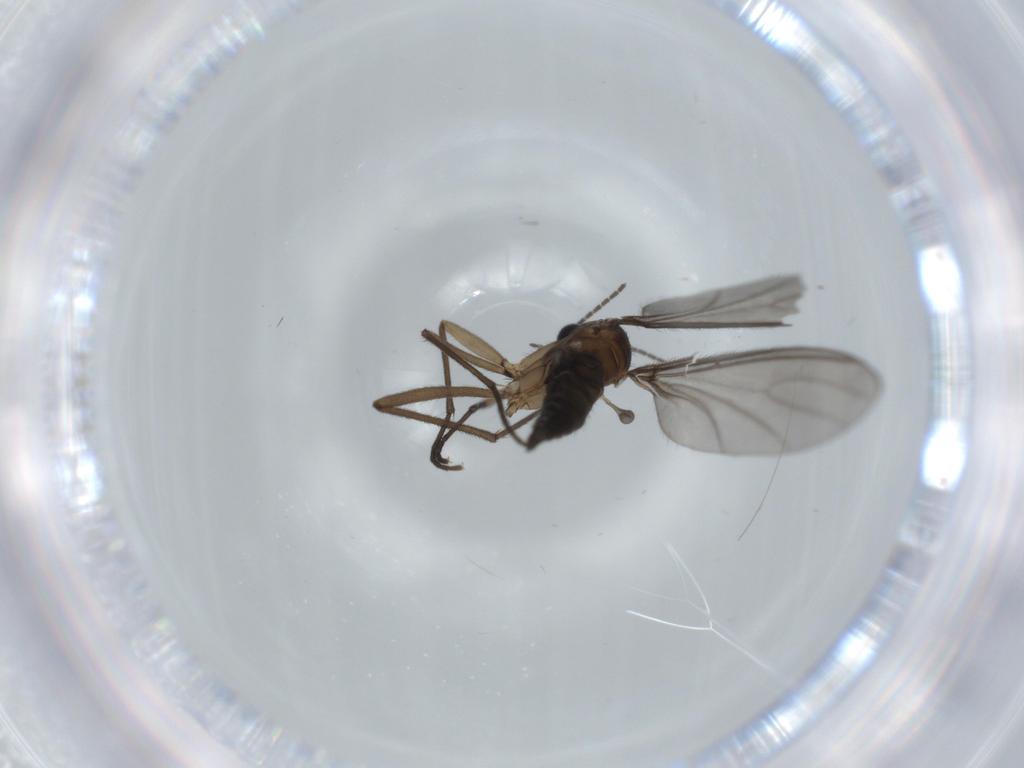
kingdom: Animalia
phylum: Arthropoda
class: Insecta
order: Diptera
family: Sciaridae
